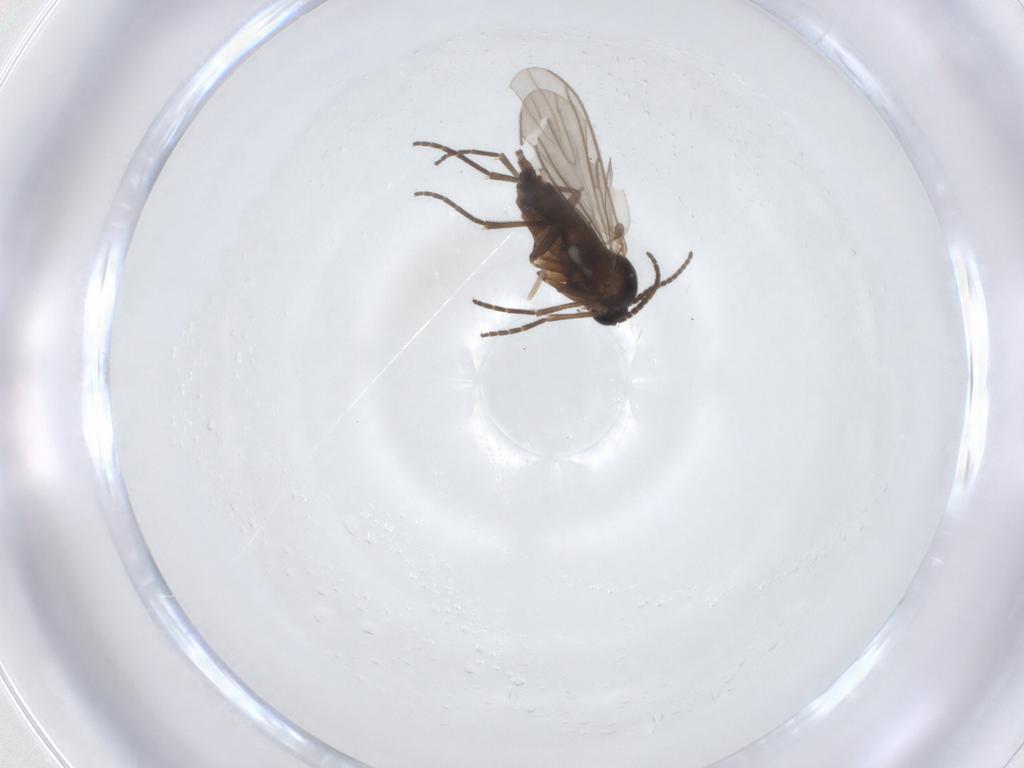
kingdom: Animalia
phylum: Arthropoda
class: Insecta
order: Diptera
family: Sciaridae
